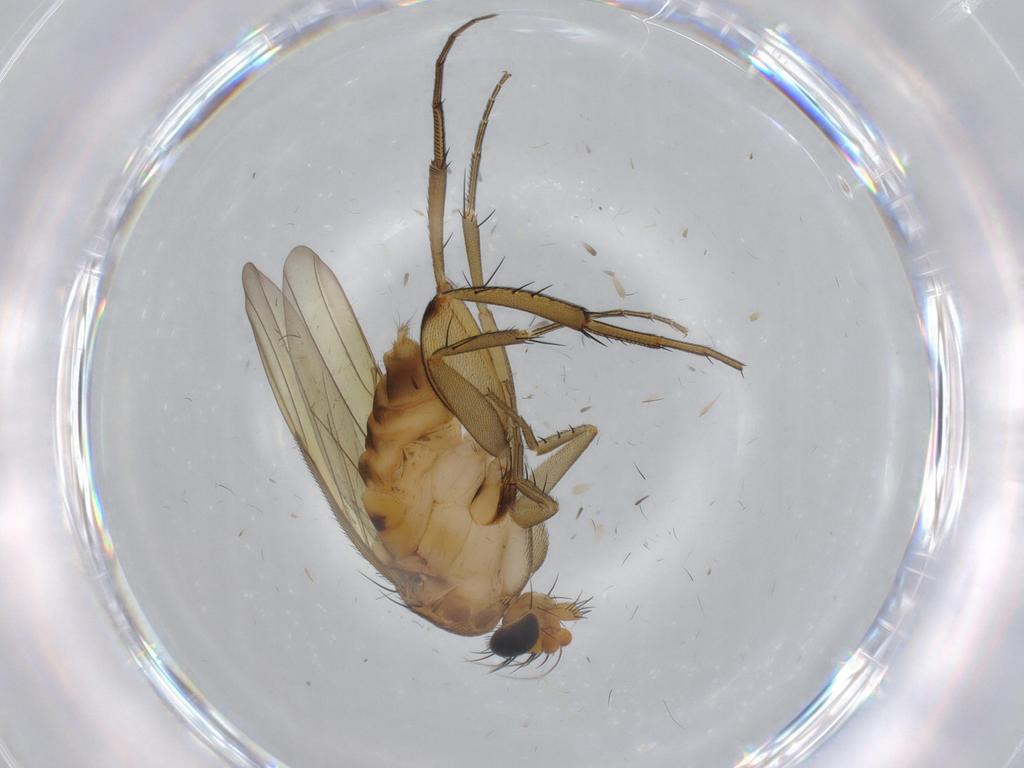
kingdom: Animalia
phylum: Arthropoda
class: Insecta
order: Diptera
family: Phoridae
